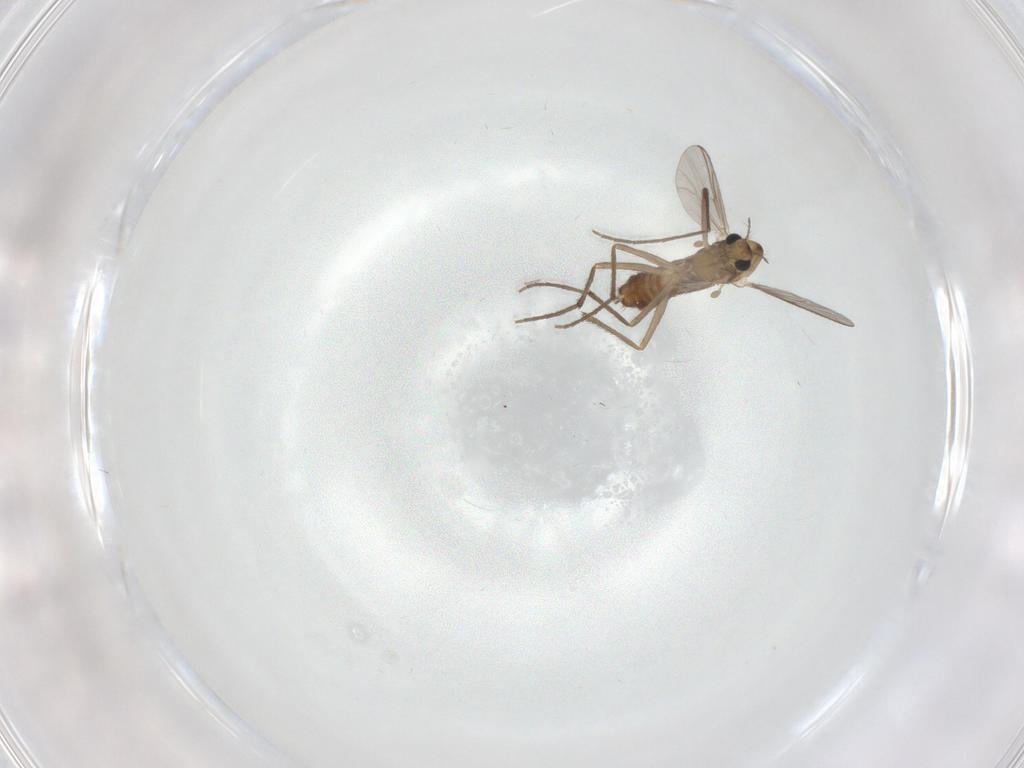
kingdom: Animalia
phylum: Arthropoda
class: Insecta
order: Diptera
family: Chironomidae
